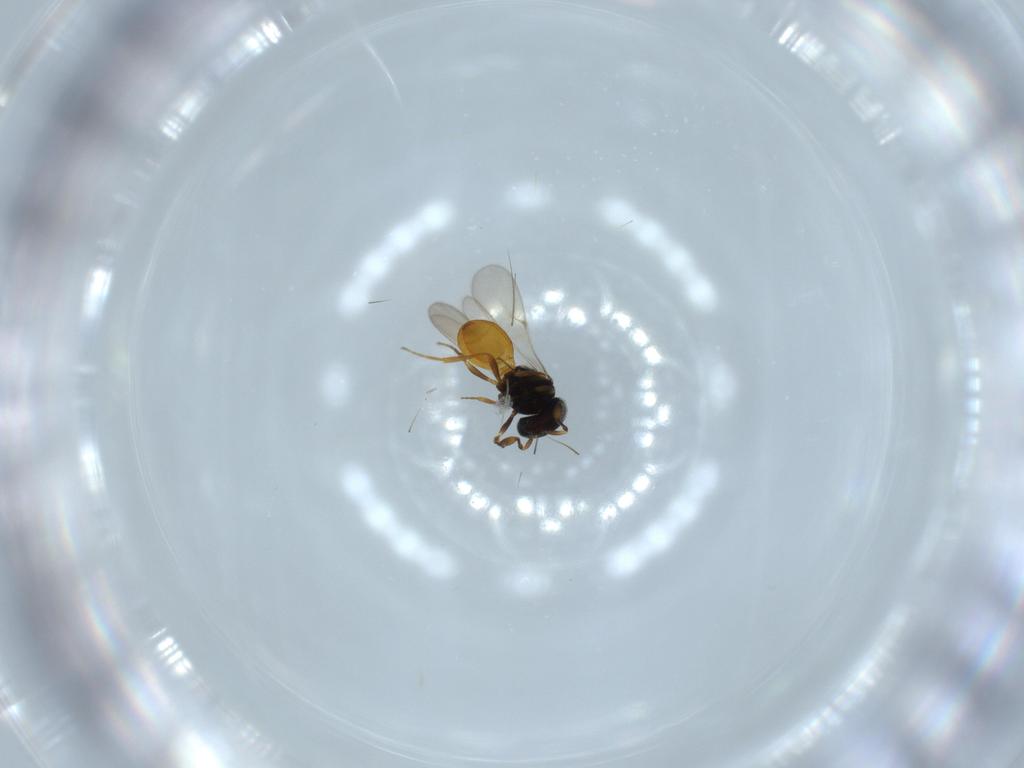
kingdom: Animalia
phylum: Arthropoda
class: Insecta
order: Hymenoptera
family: Scelionidae
